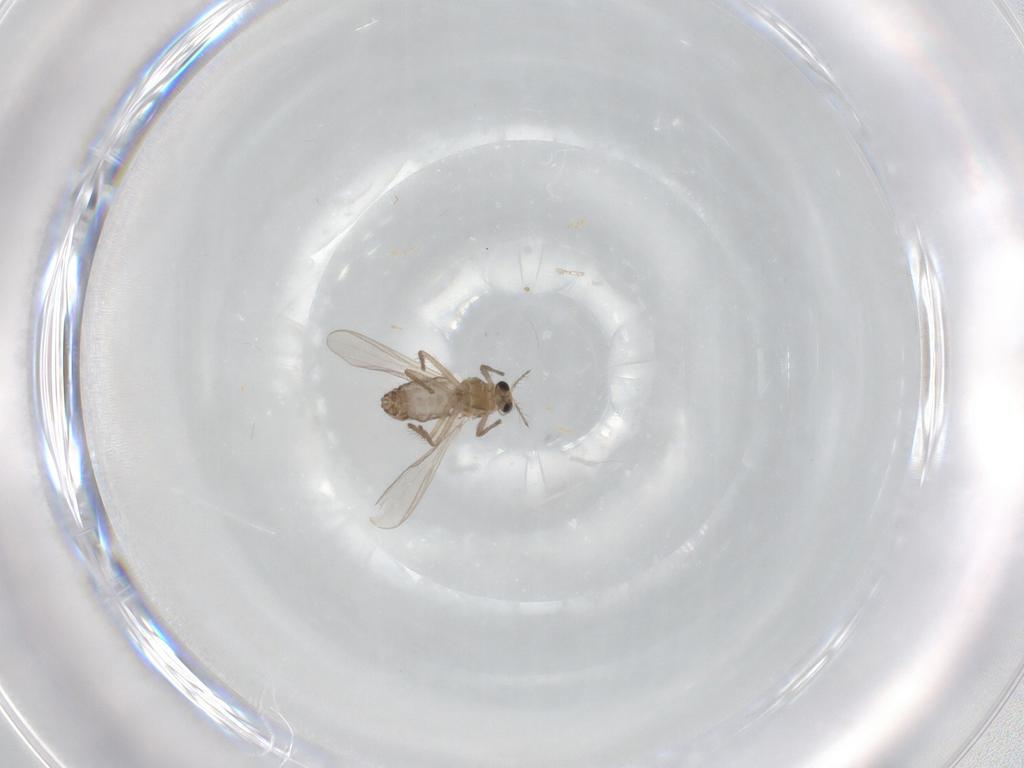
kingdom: Animalia
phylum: Arthropoda
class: Insecta
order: Diptera
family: Chironomidae
